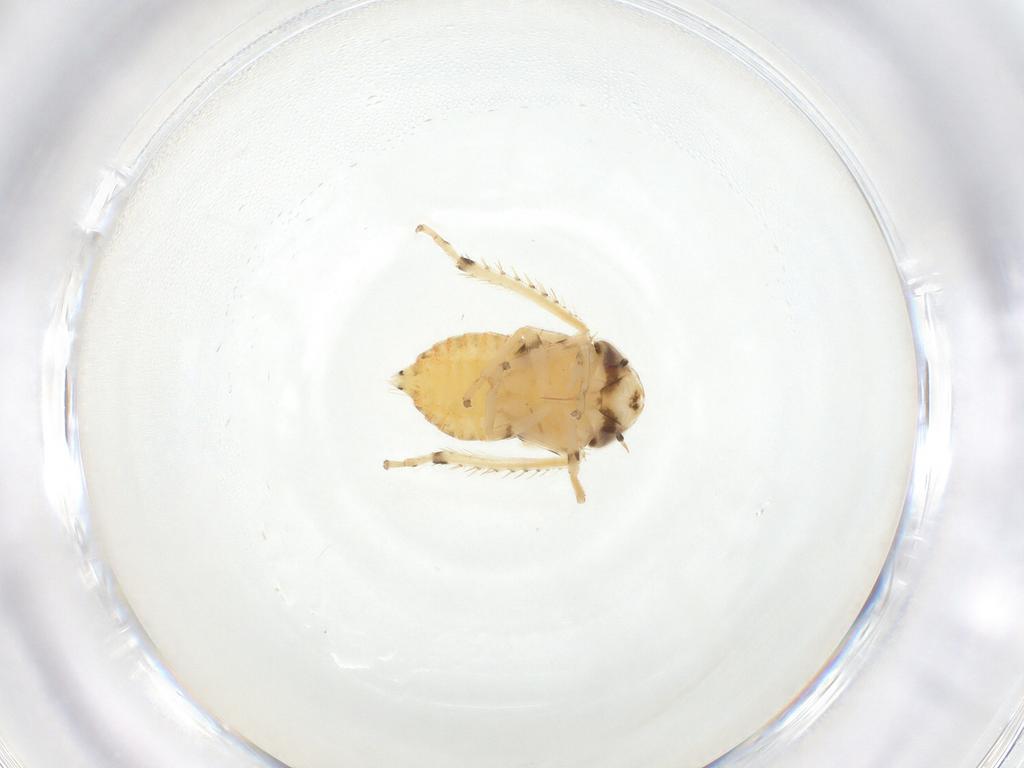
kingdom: Animalia
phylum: Arthropoda
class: Insecta
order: Hemiptera
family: Cicadellidae
